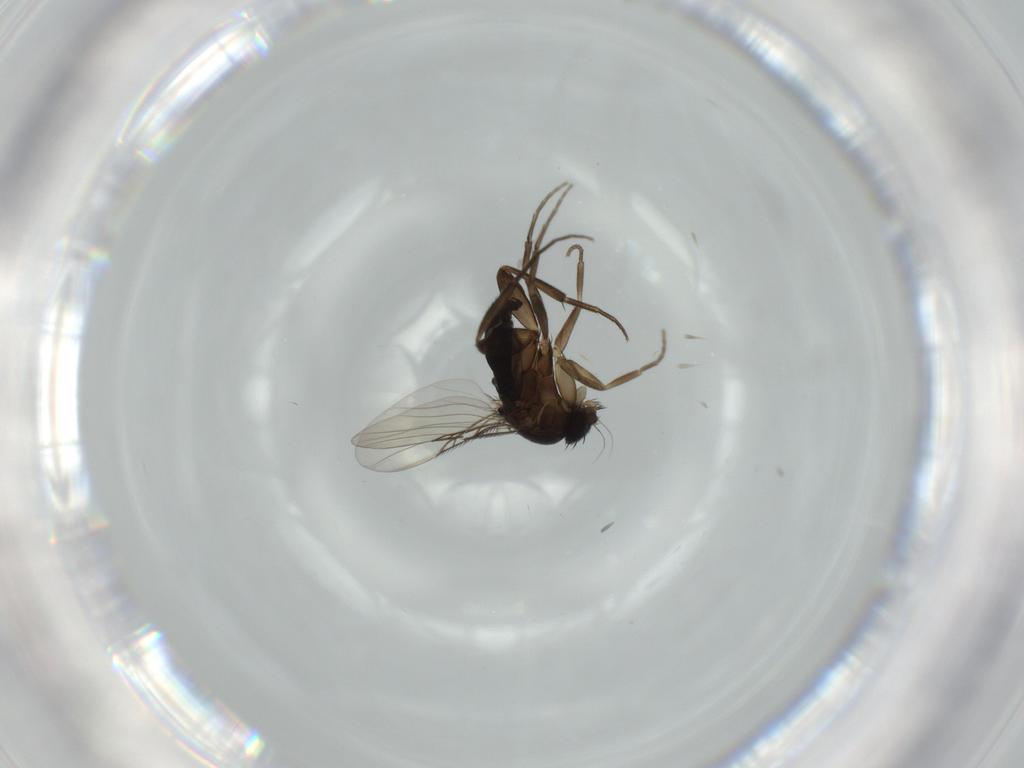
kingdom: Animalia
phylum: Arthropoda
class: Insecta
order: Diptera
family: Phoridae
